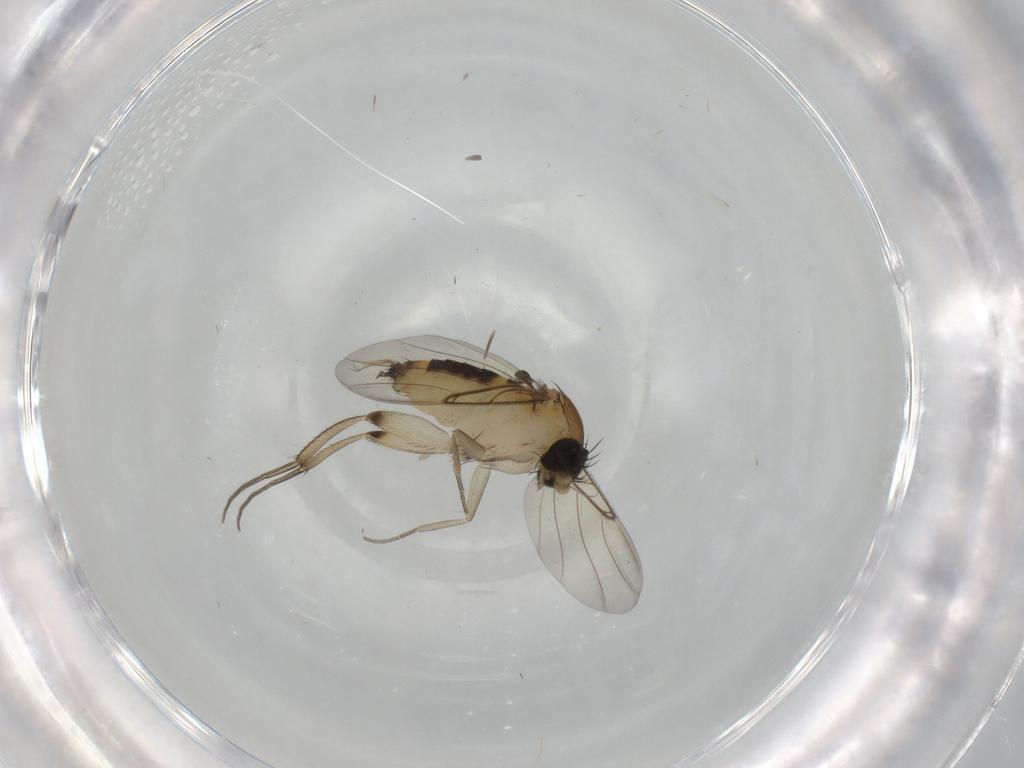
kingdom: Animalia
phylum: Arthropoda
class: Insecta
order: Diptera
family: Phoridae
